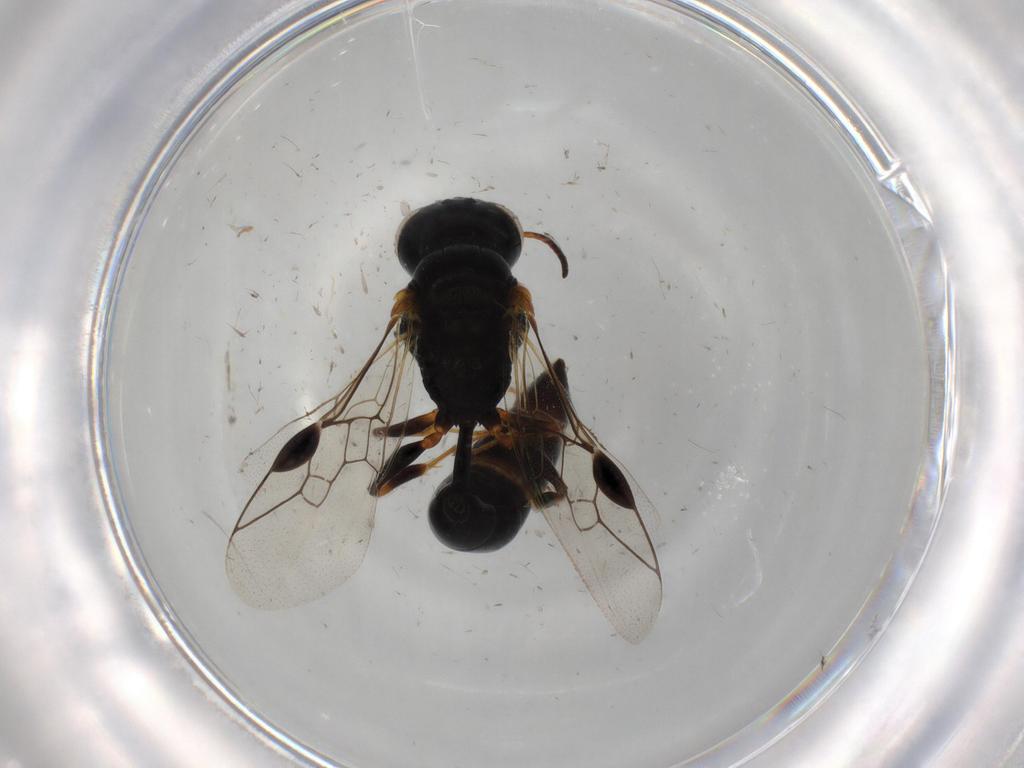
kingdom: Animalia
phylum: Arthropoda
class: Insecta
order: Hymenoptera
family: Crabronidae
